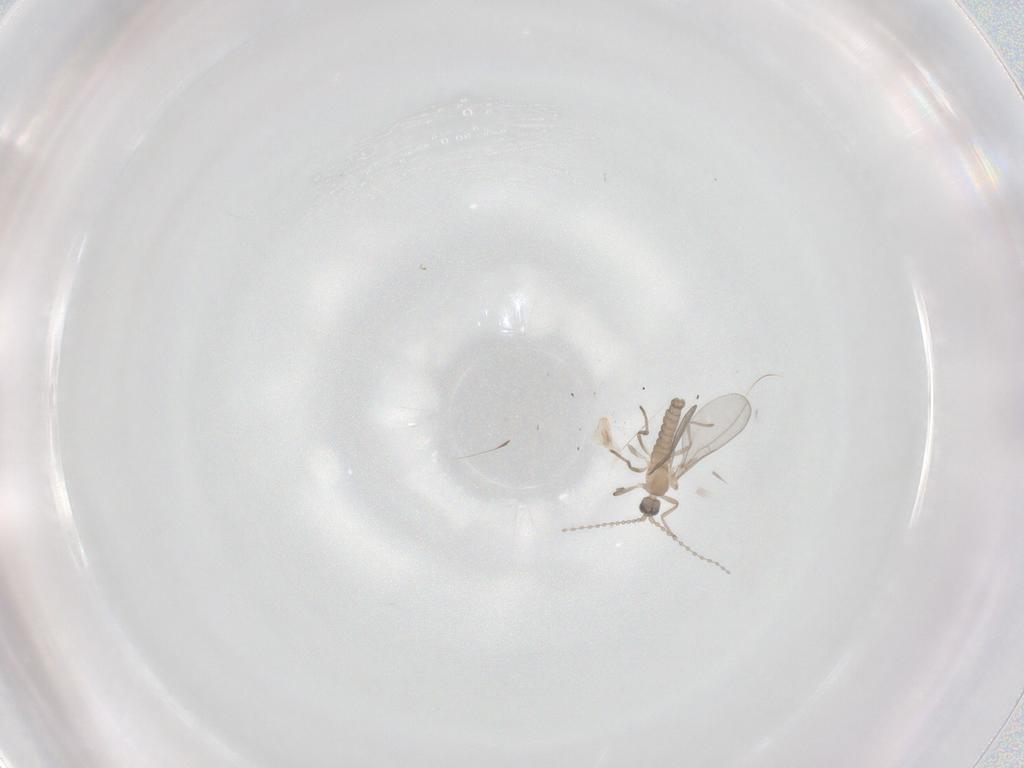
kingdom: Animalia
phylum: Arthropoda
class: Insecta
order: Diptera
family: Cecidomyiidae
